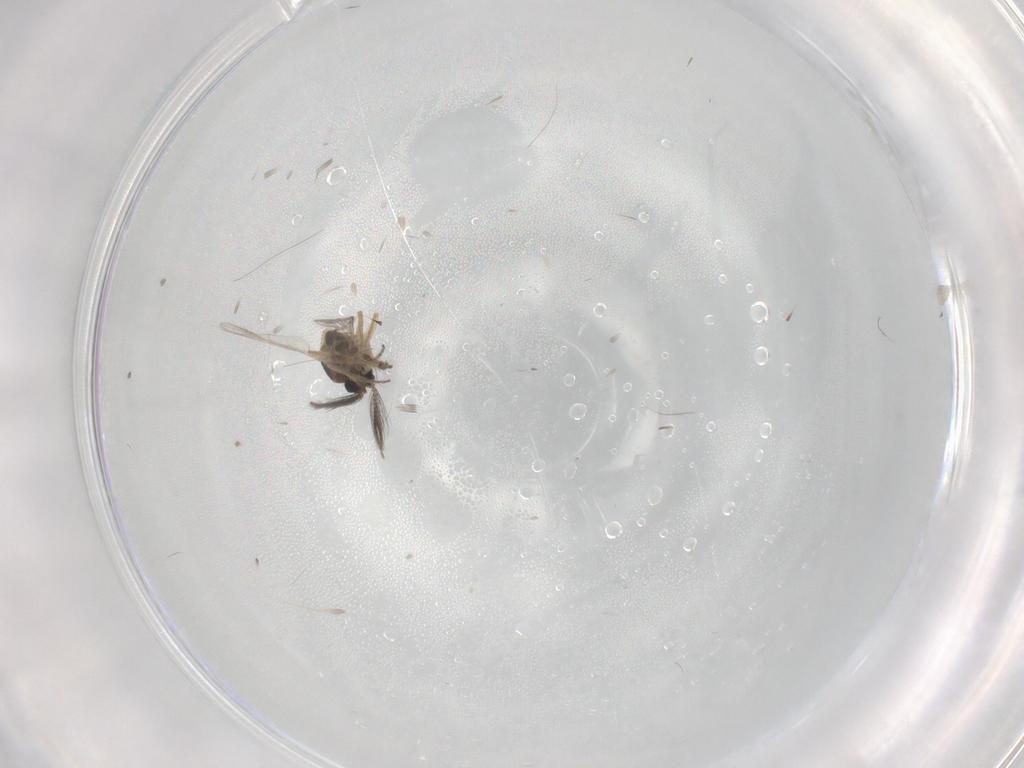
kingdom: Animalia
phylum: Arthropoda
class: Insecta
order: Diptera
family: Ceratopogonidae
